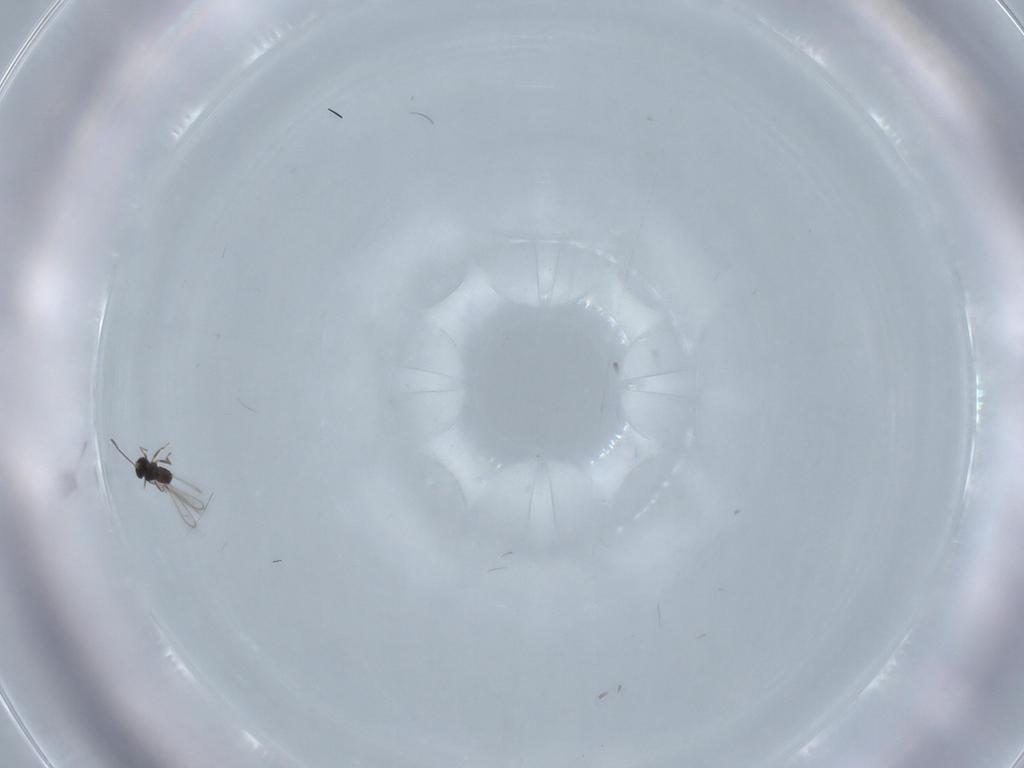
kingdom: Animalia
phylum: Arthropoda
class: Insecta
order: Hymenoptera
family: Mymaridae
